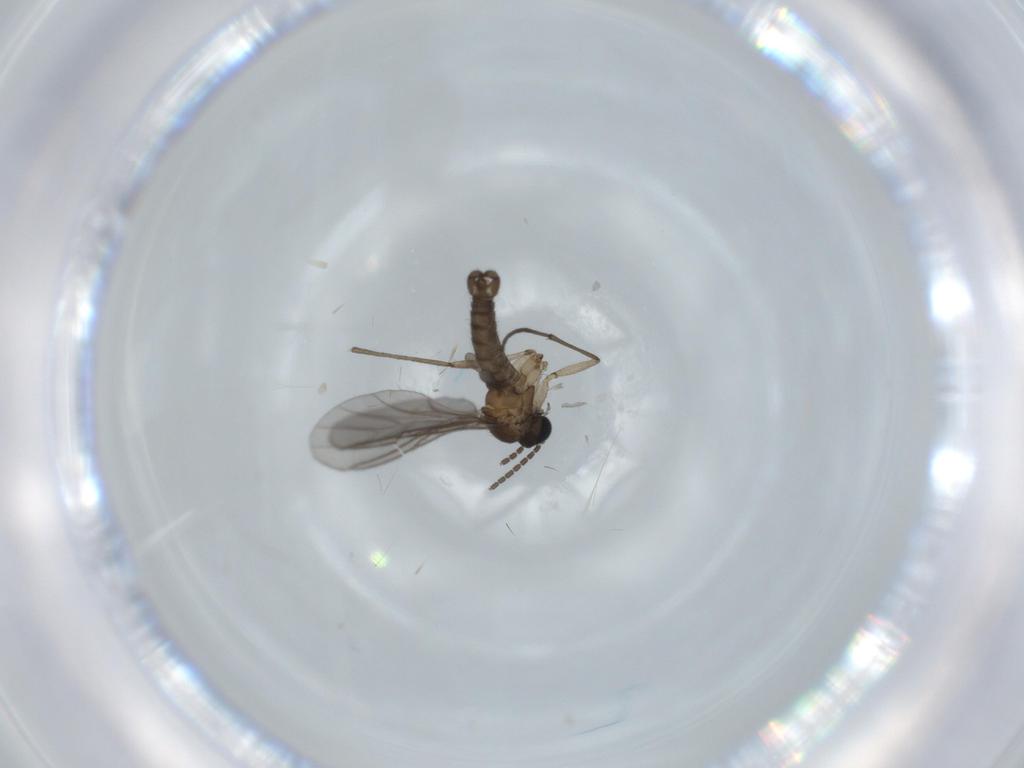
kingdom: Animalia
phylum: Arthropoda
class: Insecta
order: Diptera
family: Sciaridae
